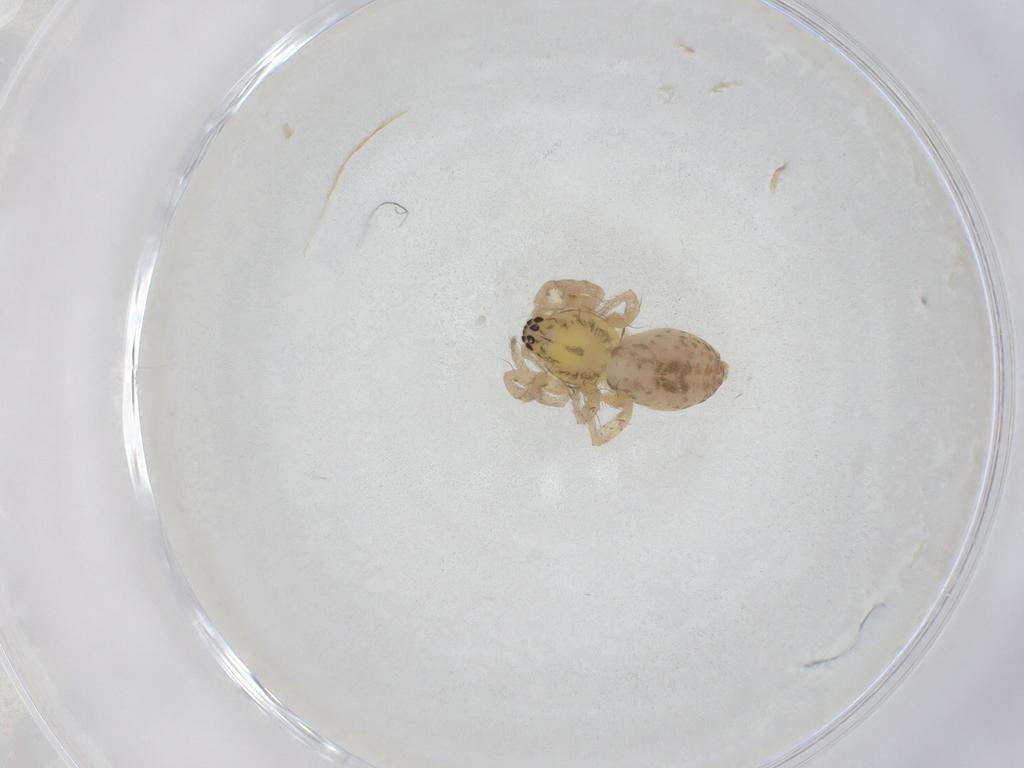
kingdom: Animalia
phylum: Arthropoda
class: Arachnida
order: Araneae
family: Anyphaenidae
